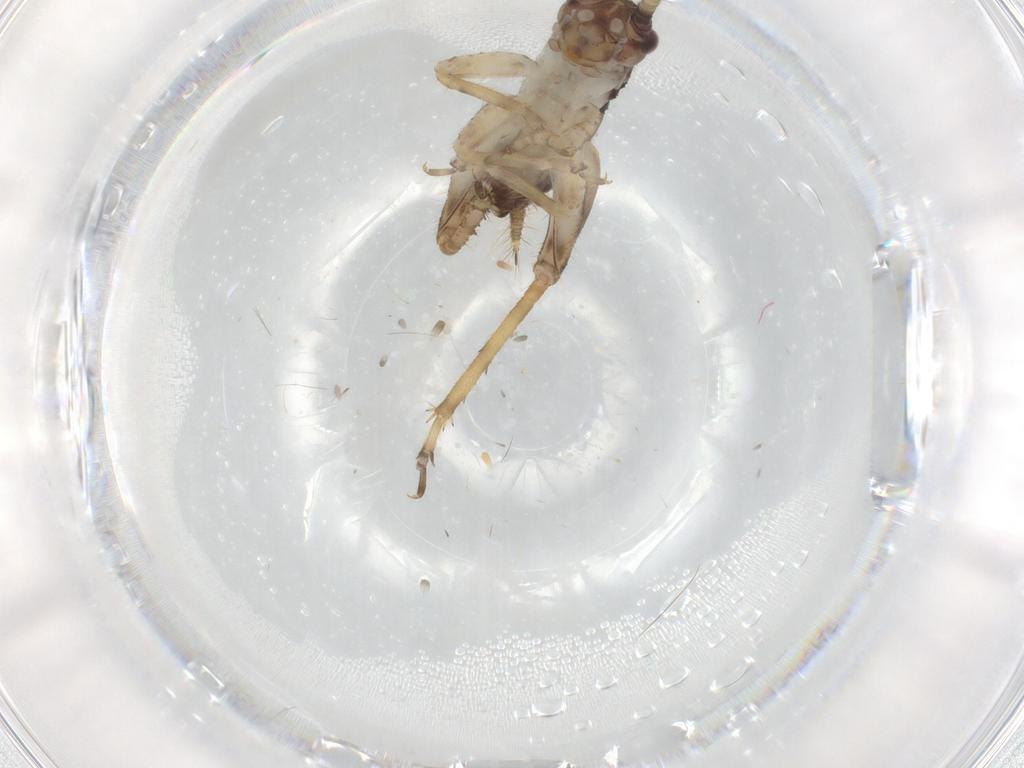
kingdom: Animalia
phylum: Arthropoda
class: Insecta
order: Orthoptera
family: Gryllidae
